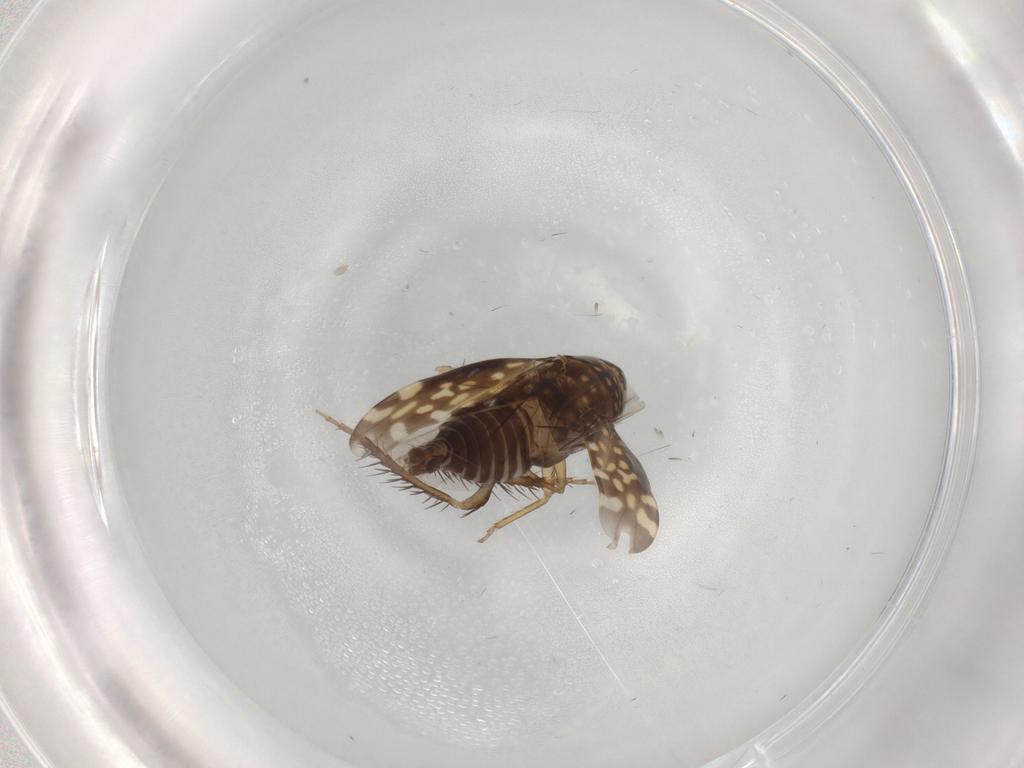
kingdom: Animalia
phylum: Arthropoda
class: Insecta
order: Hemiptera
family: Cicadellidae
